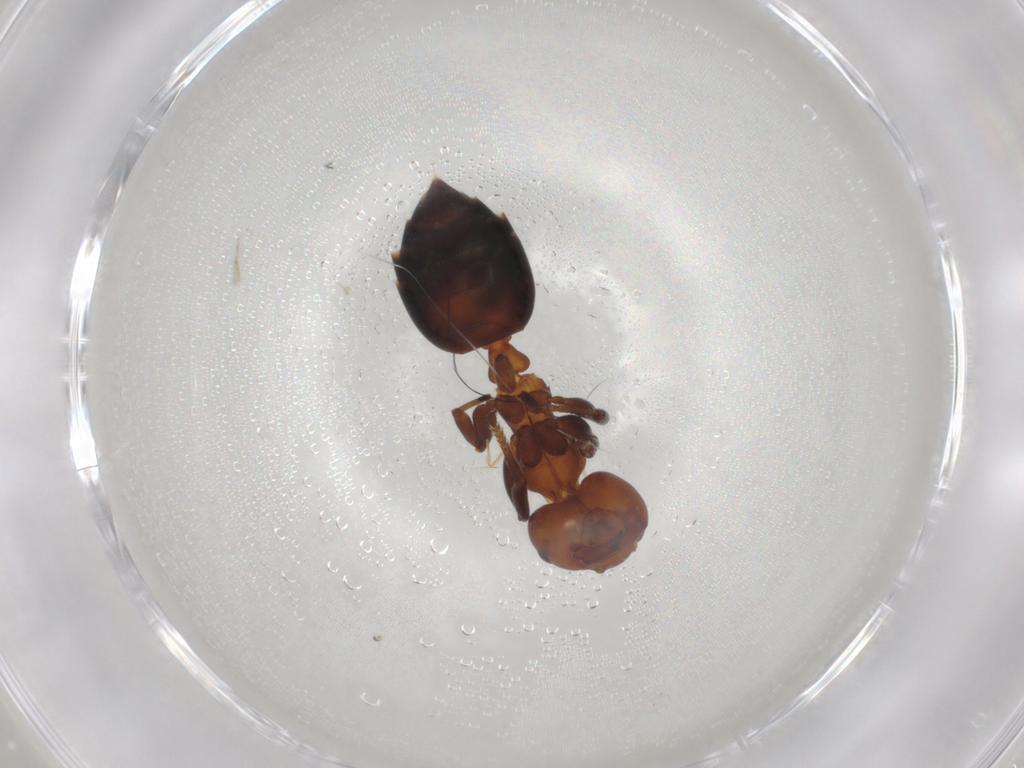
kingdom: Animalia
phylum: Arthropoda
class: Insecta
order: Hymenoptera
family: Formicidae
